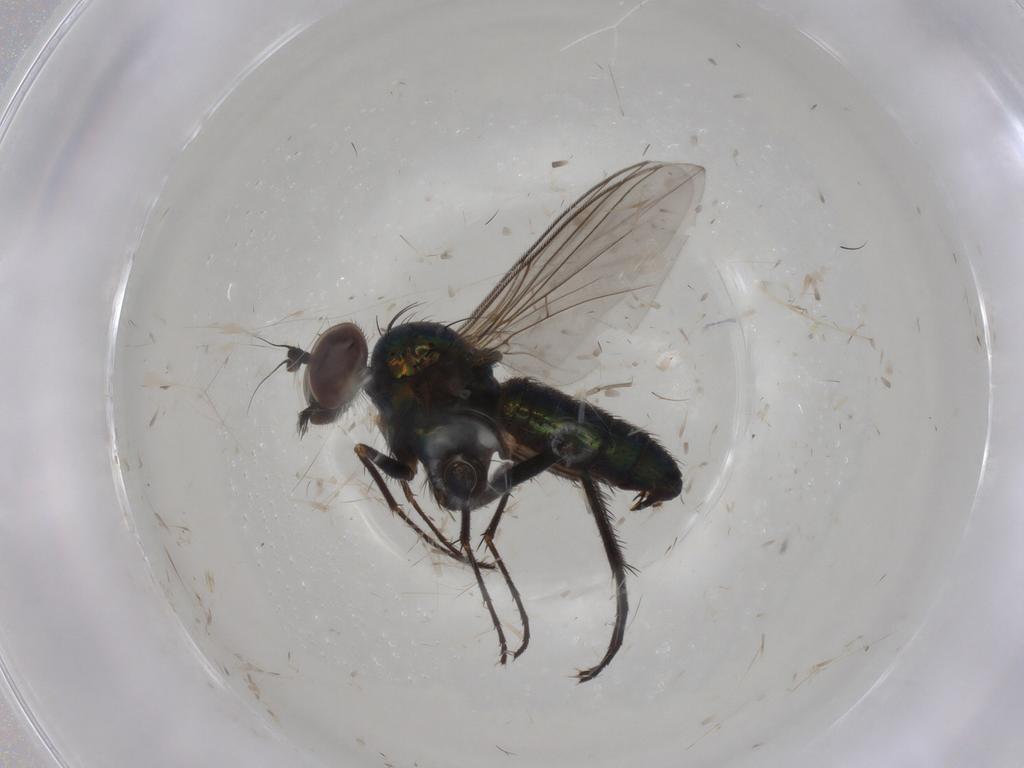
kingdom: Animalia
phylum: Arthropoda
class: Insecta
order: Diptera
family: Dolichopodidae
